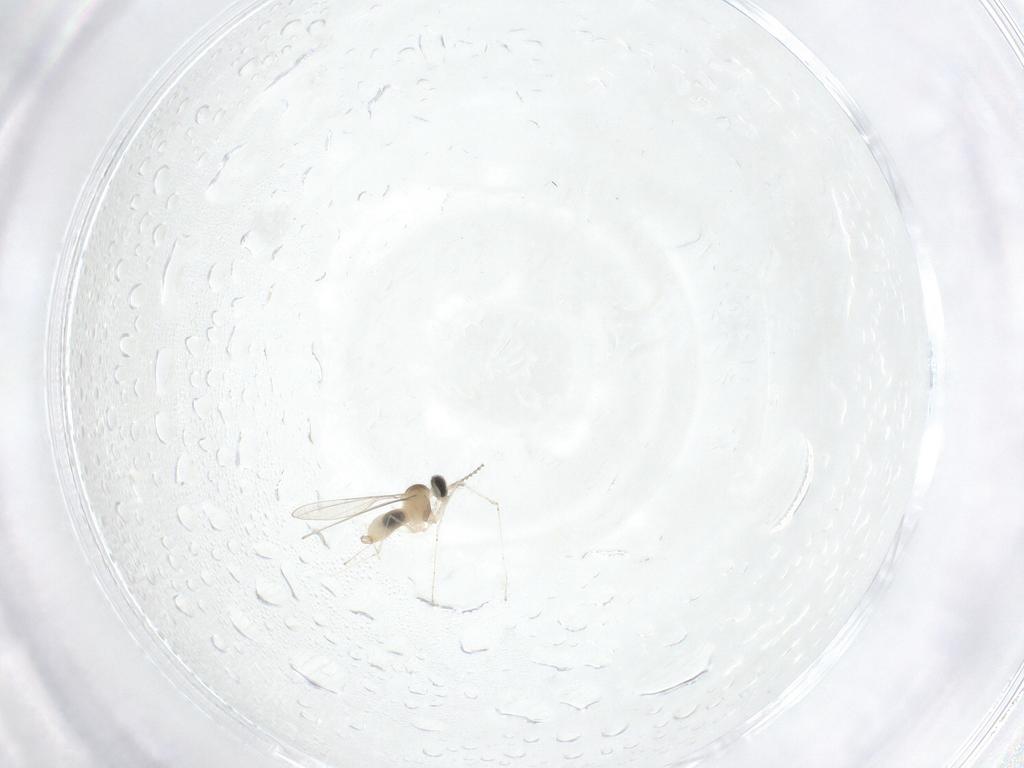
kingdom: Animalia
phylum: Arthropoda
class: Insecta
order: Diptera
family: Cecidomyiidae
